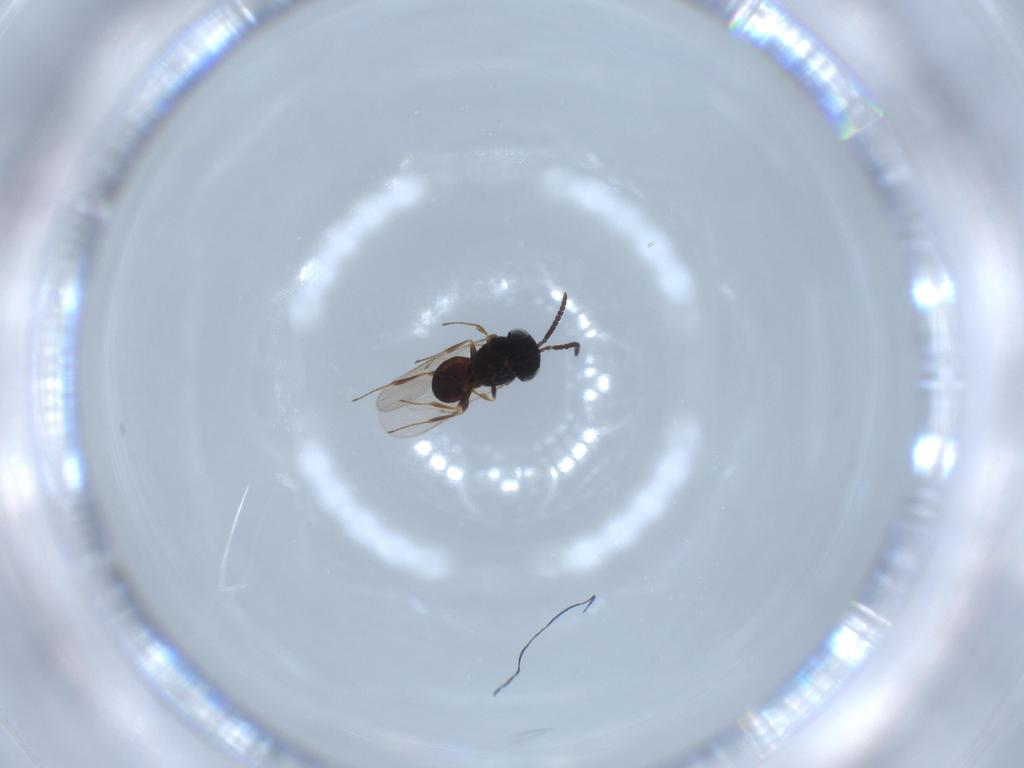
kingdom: Animalia
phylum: Arthropoda
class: Insecta
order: Hymenoptera
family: Scelionidae
